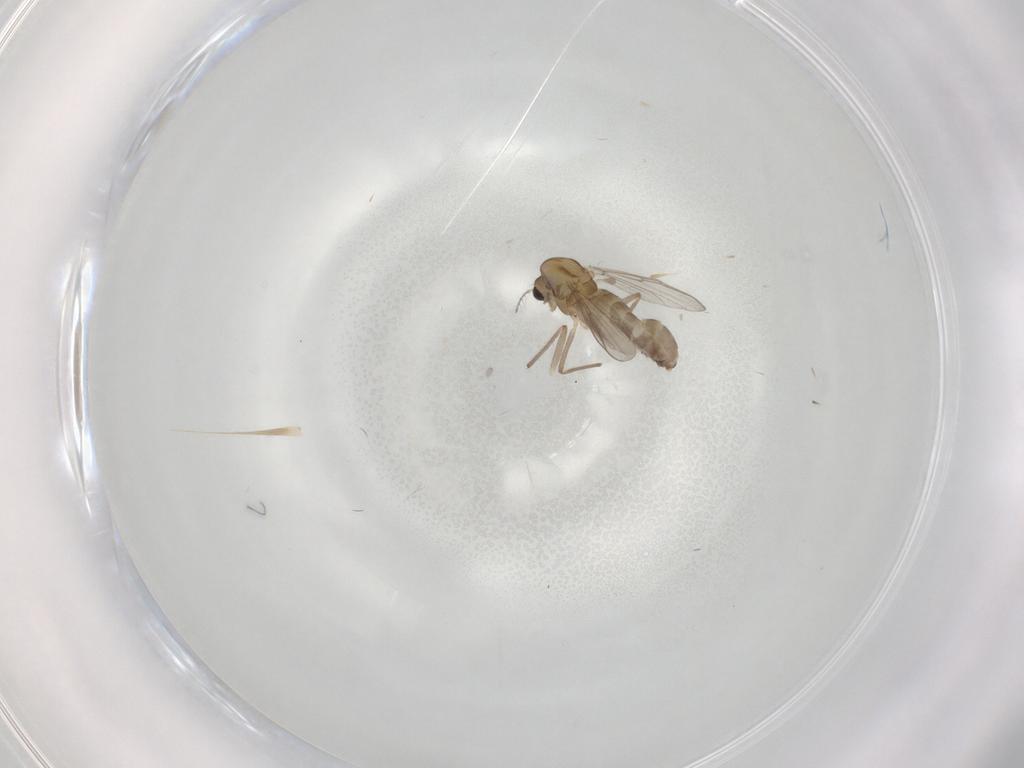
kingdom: Animalia
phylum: Arthropoda
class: Insecta
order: Diptera
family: Chironomidae
